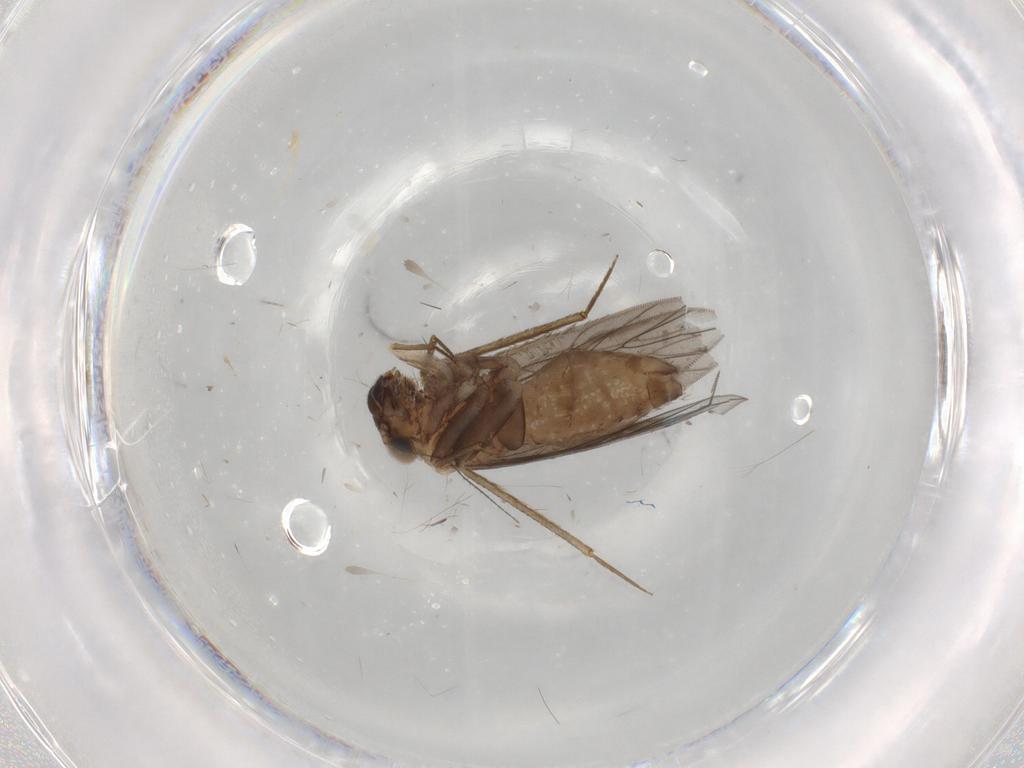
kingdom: Animalia
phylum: Arthropoda
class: Insecta
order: Psocodea
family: Lepidopsocidae
